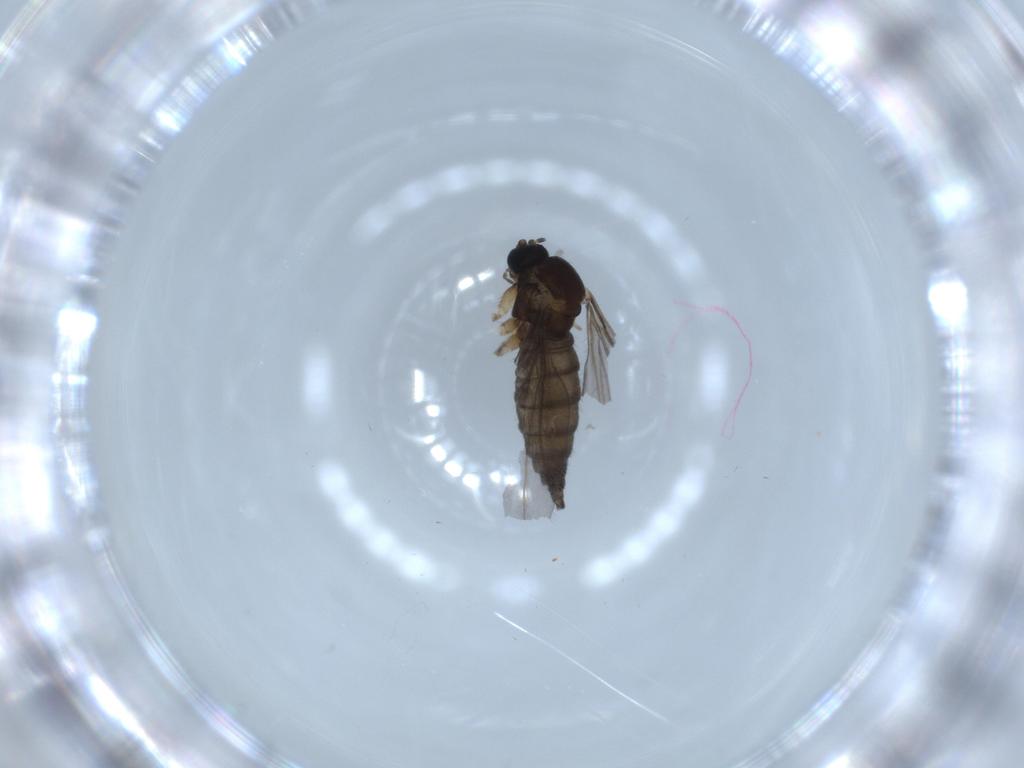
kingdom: Animalia
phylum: Arthropoda
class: Insecta
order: Diptera
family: Sciaridae
